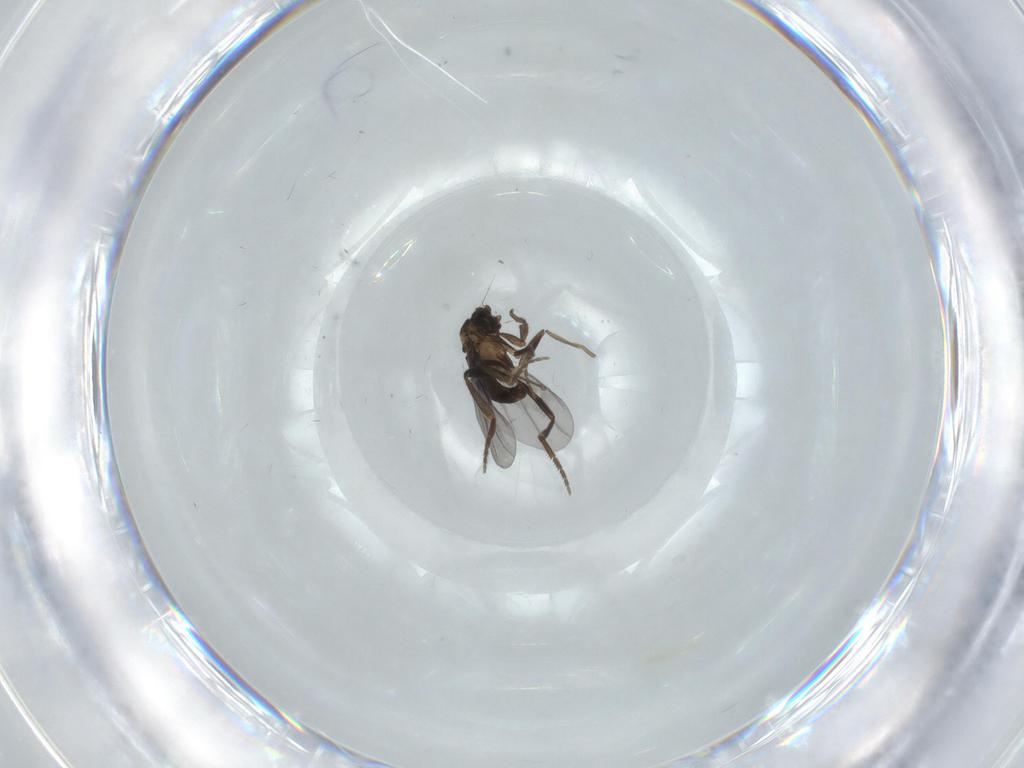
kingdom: Animalia
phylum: Arthropoda
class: Insecta
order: Diptera
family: Phoridae
